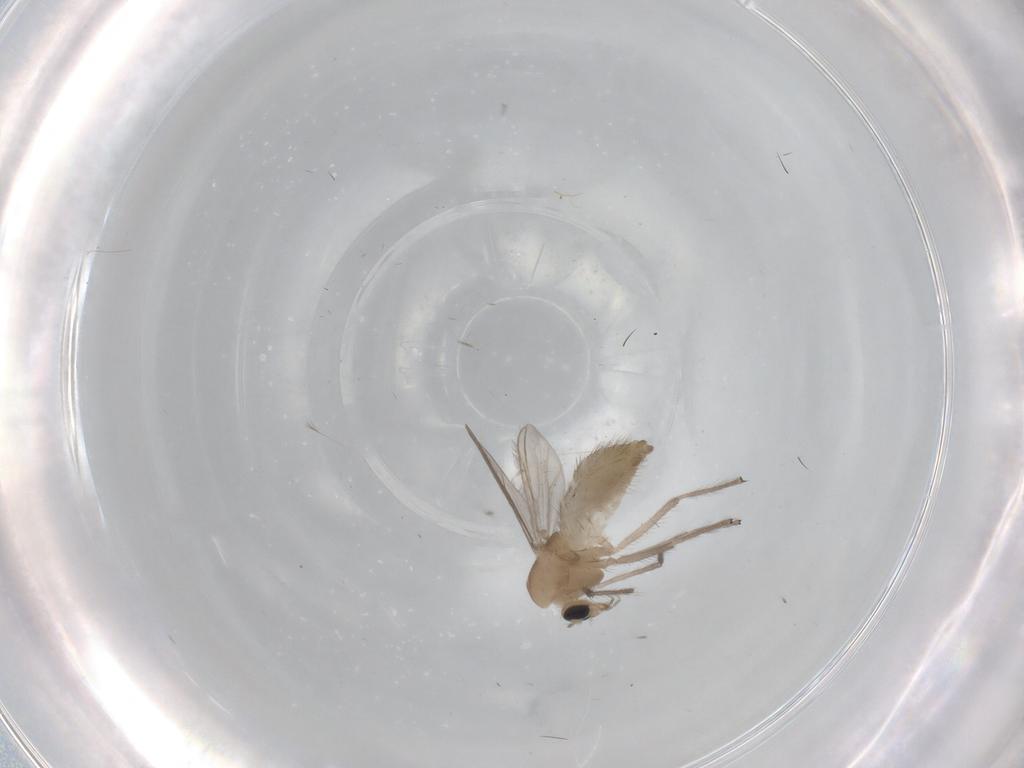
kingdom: Animalia
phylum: Arthropoda
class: Insecta
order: Diptera
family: Chironomidae
